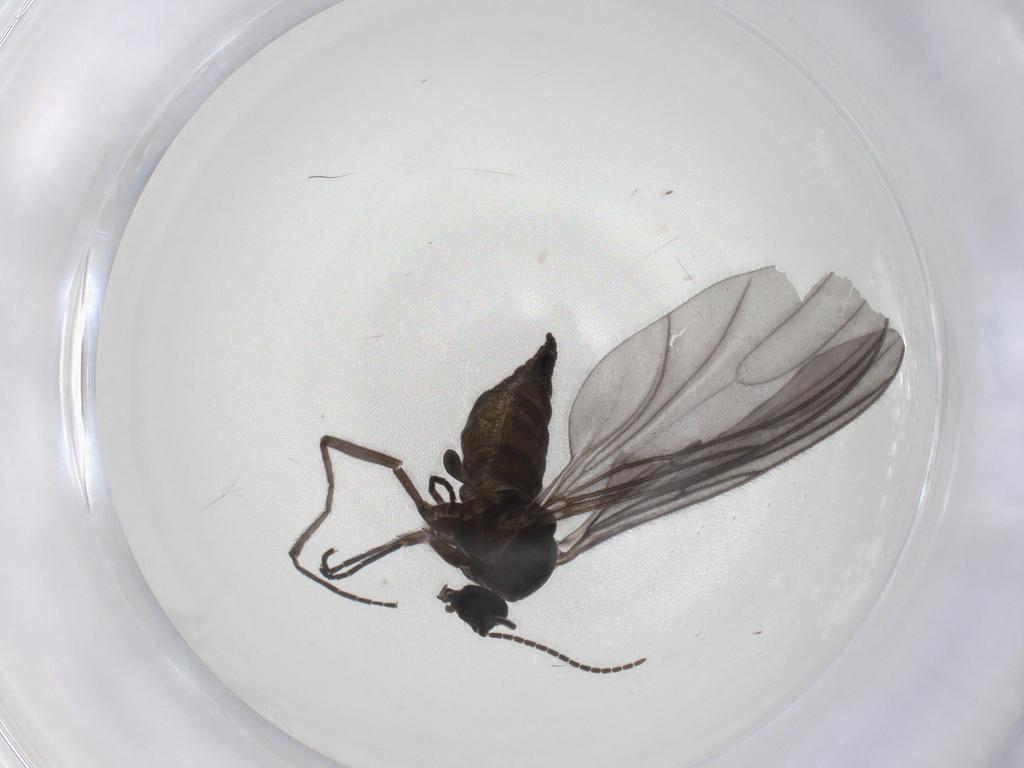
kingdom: Animalia
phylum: Arthropoda
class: Insecta
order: Diptera
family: Sciaridae
